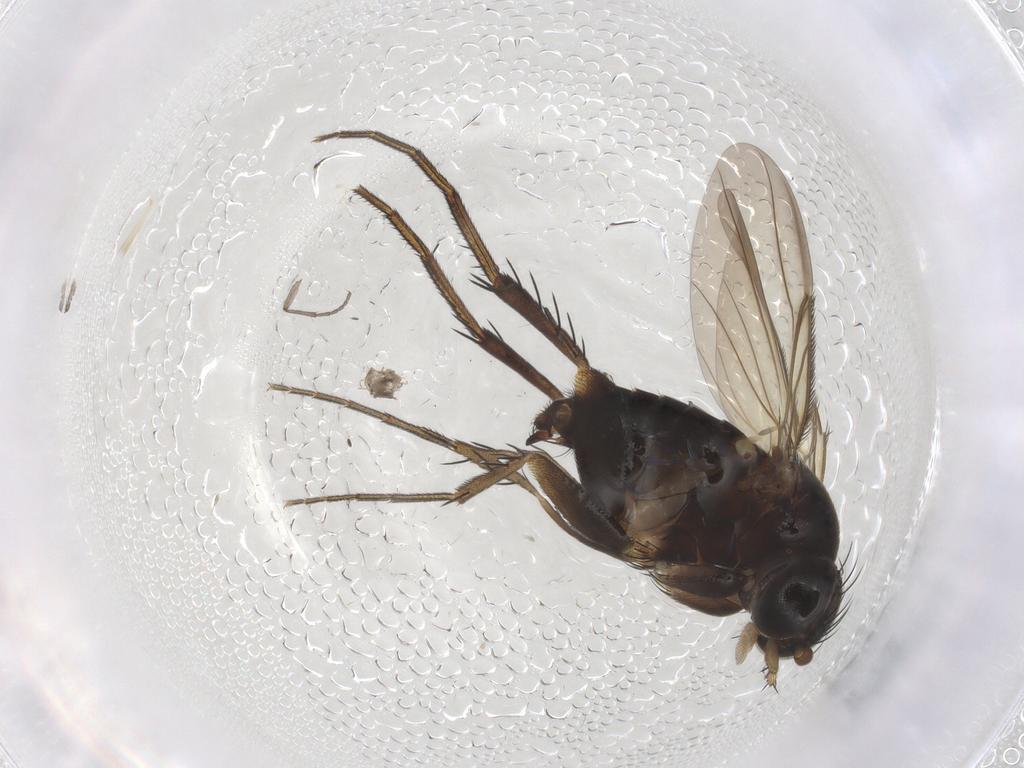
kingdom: Animalia
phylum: Arthropoda
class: Insecta
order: Diptera
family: Phoridae
